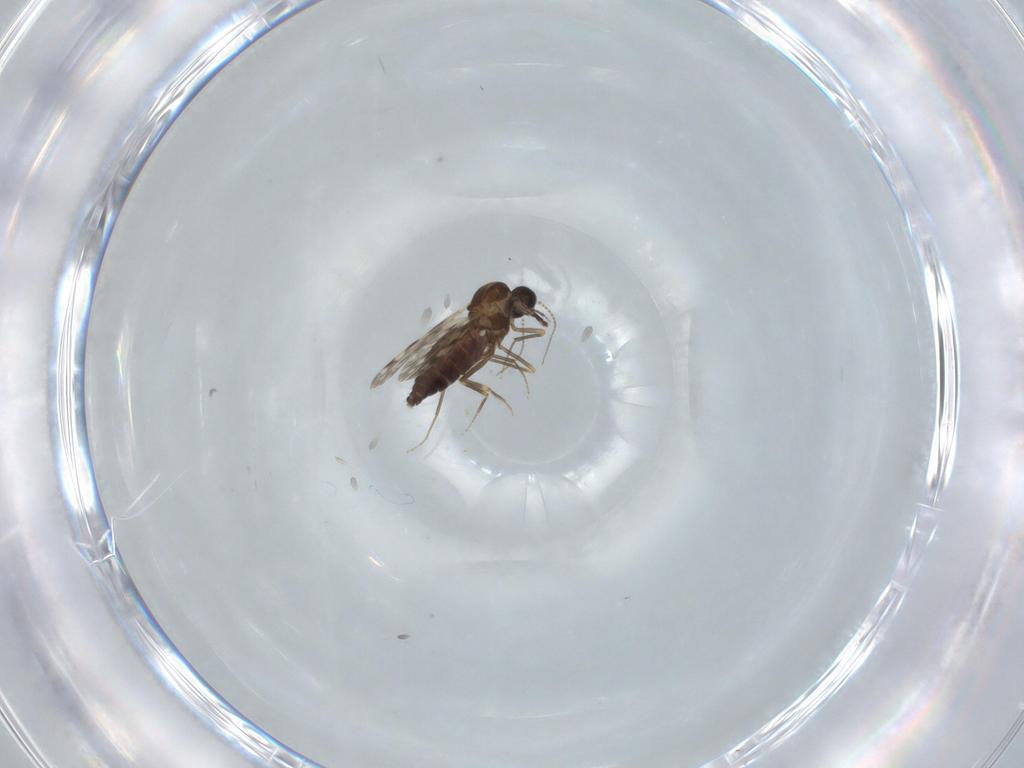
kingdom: Animalia
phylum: Arthropoda
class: Insecta
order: Diptera
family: Ceratopogonidae
